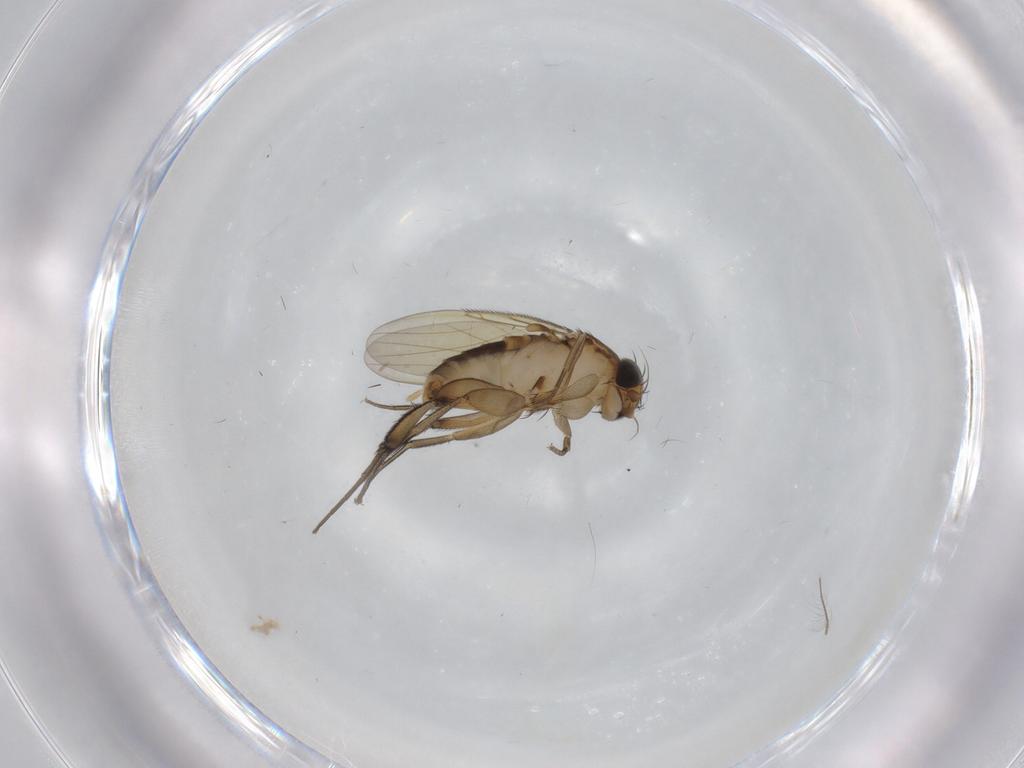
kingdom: Animalia
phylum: Arthropoda
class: Insecta
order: Diptera
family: Phoridae
